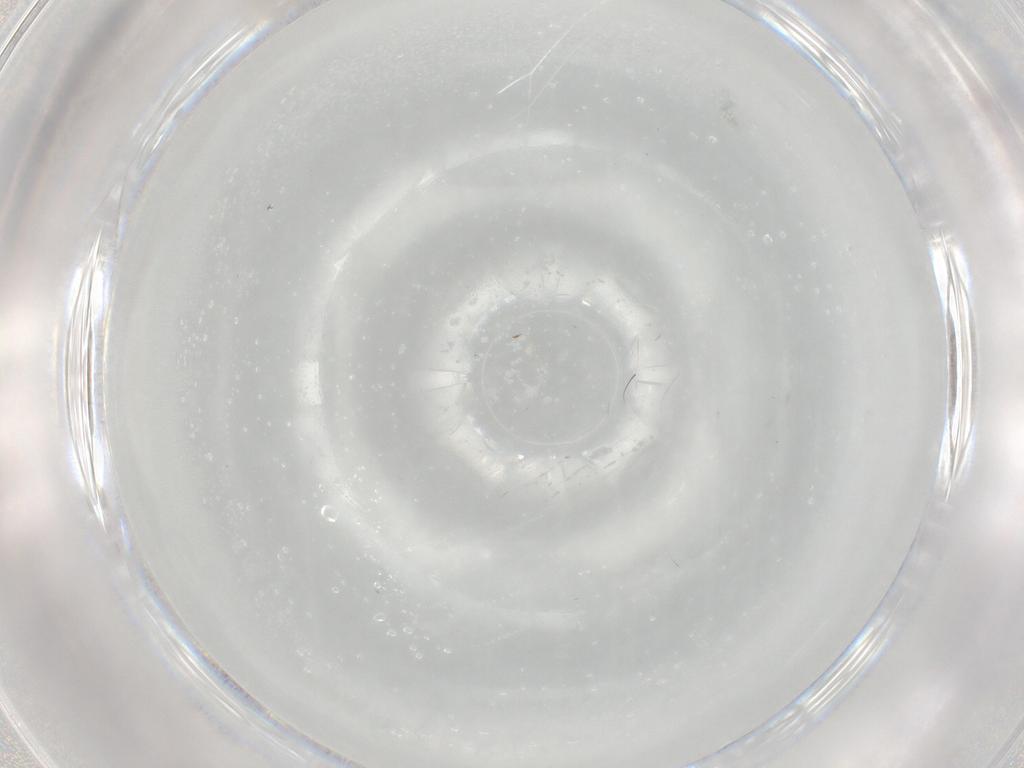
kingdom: Animalia
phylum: Arthropoda
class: Insecta
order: Hymenoptera
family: Mymaridae
